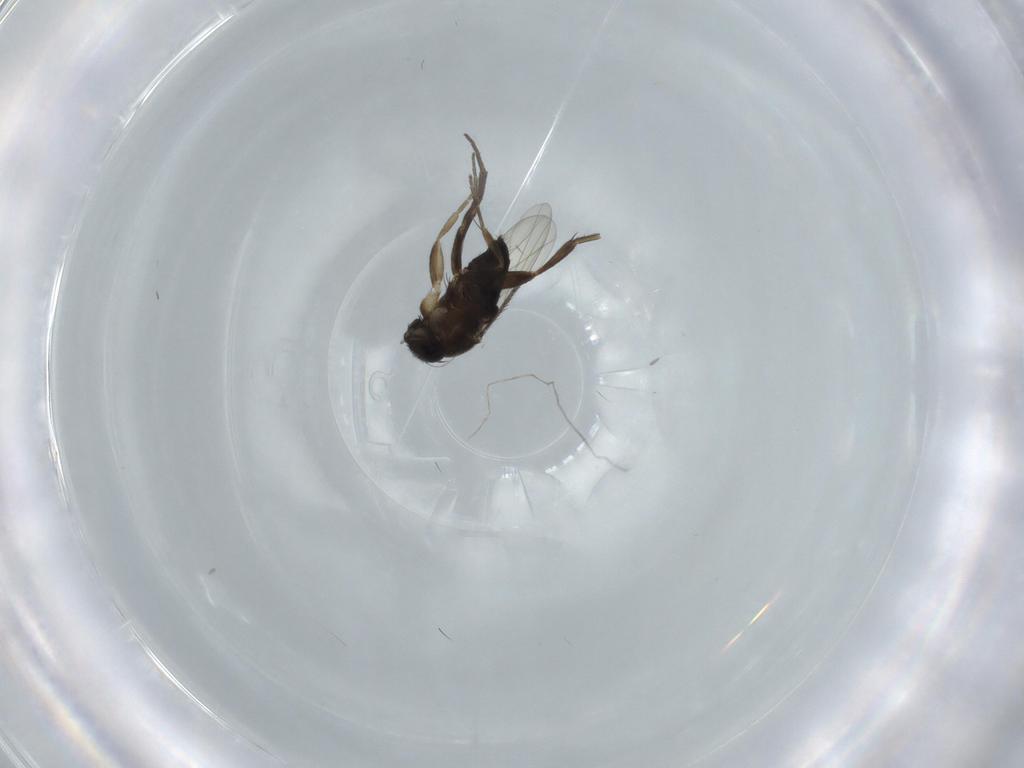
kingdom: Animalia
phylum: Arthropoda
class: Insecta
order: Diptera
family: Phoridae
